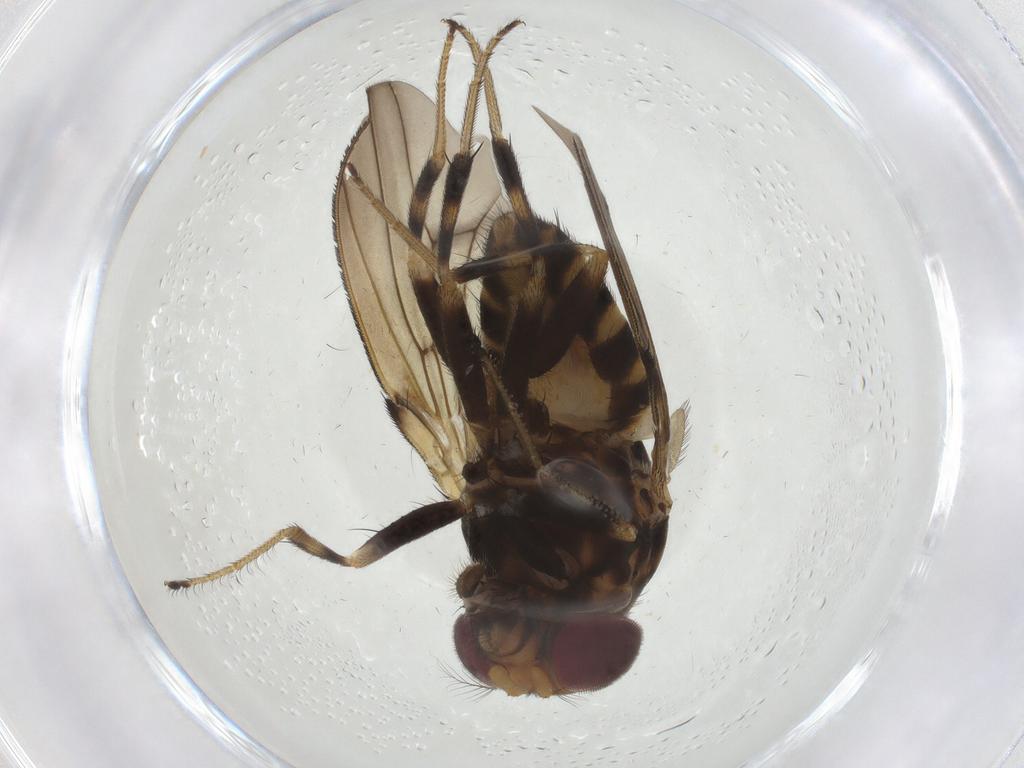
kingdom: Animalia
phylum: Arthropoda
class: Insecta
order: Diptera
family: Drosophilidae
